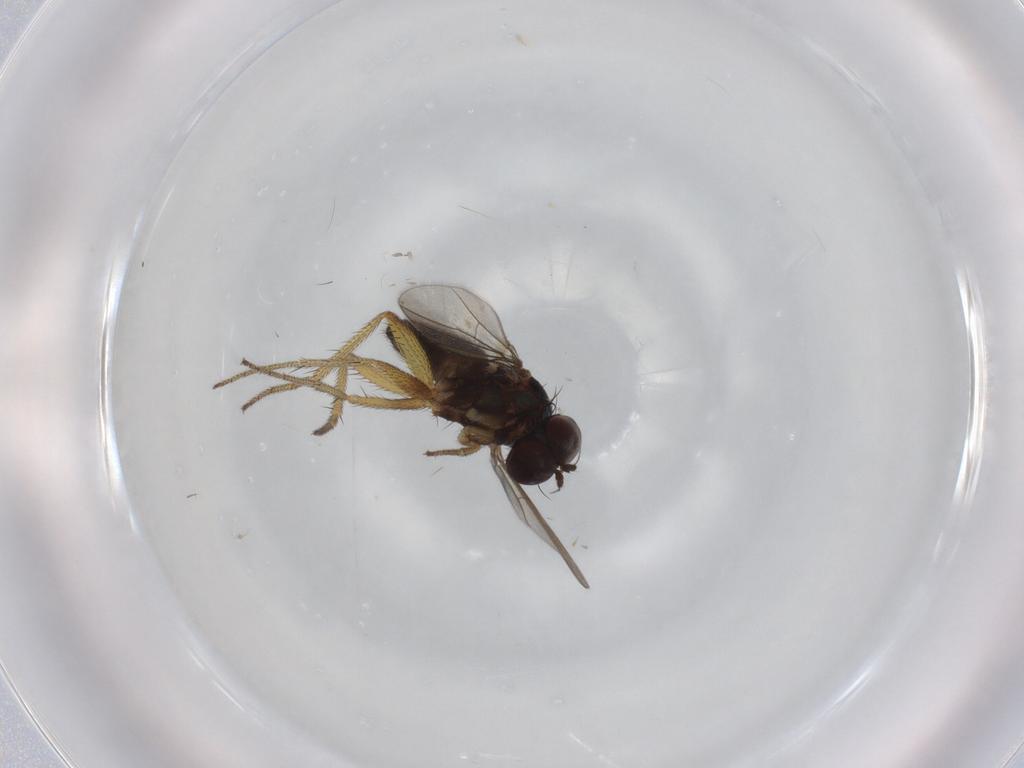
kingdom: Animalia
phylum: Arthropoda
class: Insecta
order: Diptera
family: Dolichopodidae
